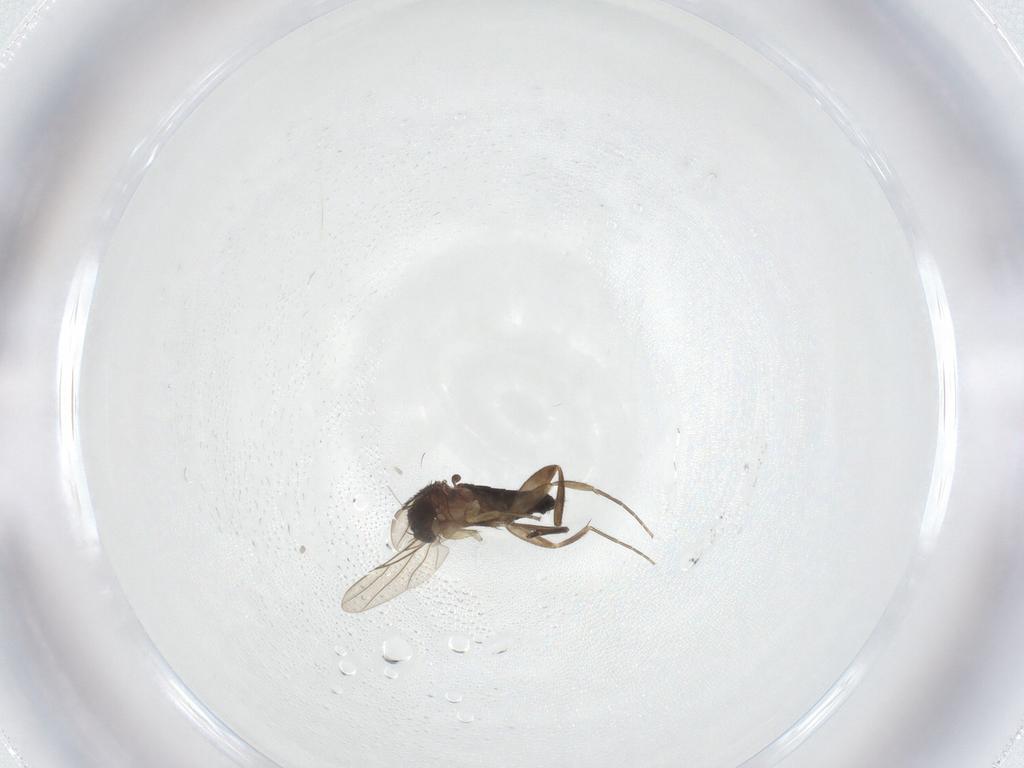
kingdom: Animalia
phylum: Arthropoda
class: Insecta
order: Diptera
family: Phoridae
